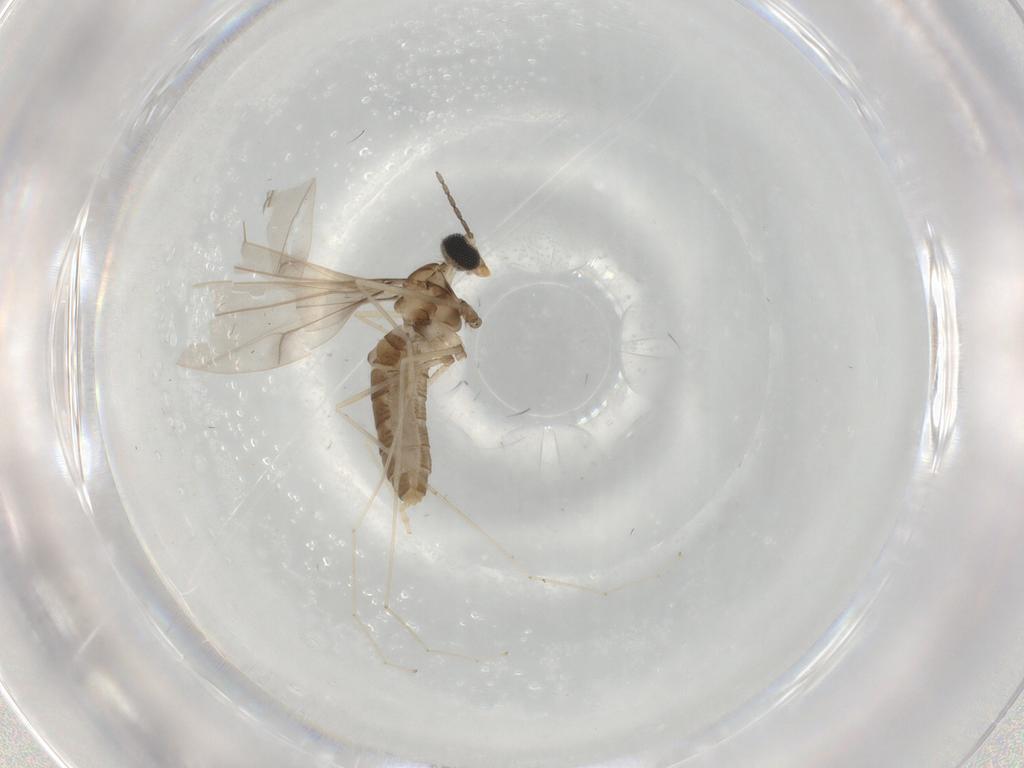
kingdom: Animalia
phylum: Arthropoda
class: Insecta
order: Diptera
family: Cecidomyiidae
